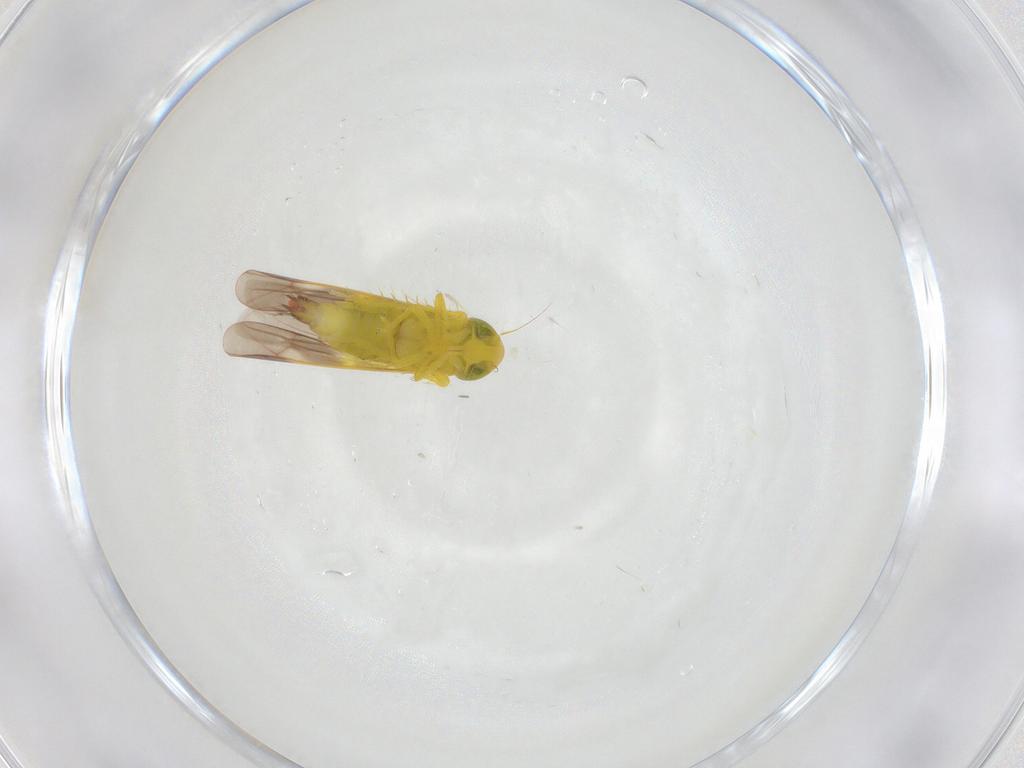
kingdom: Animalia
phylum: Arthropoda
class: Insecta
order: Hemiptera
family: Cicadellidae
